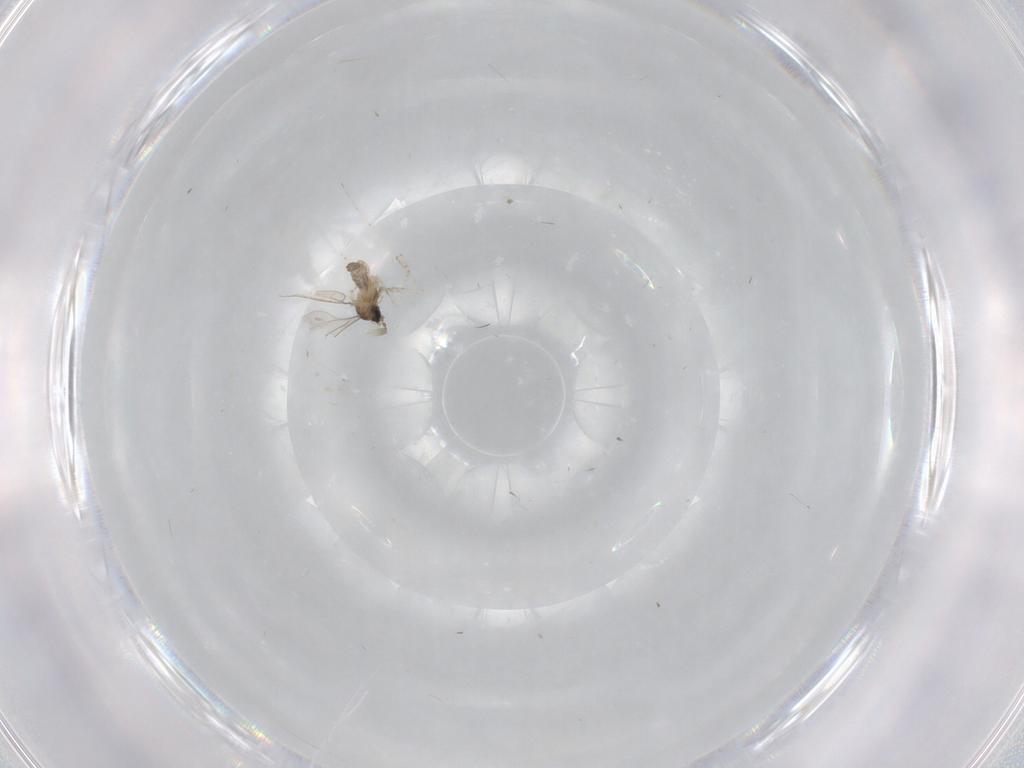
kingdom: Animalia
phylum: Arthropoda
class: Insecta
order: Diptera
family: Chironomidae
